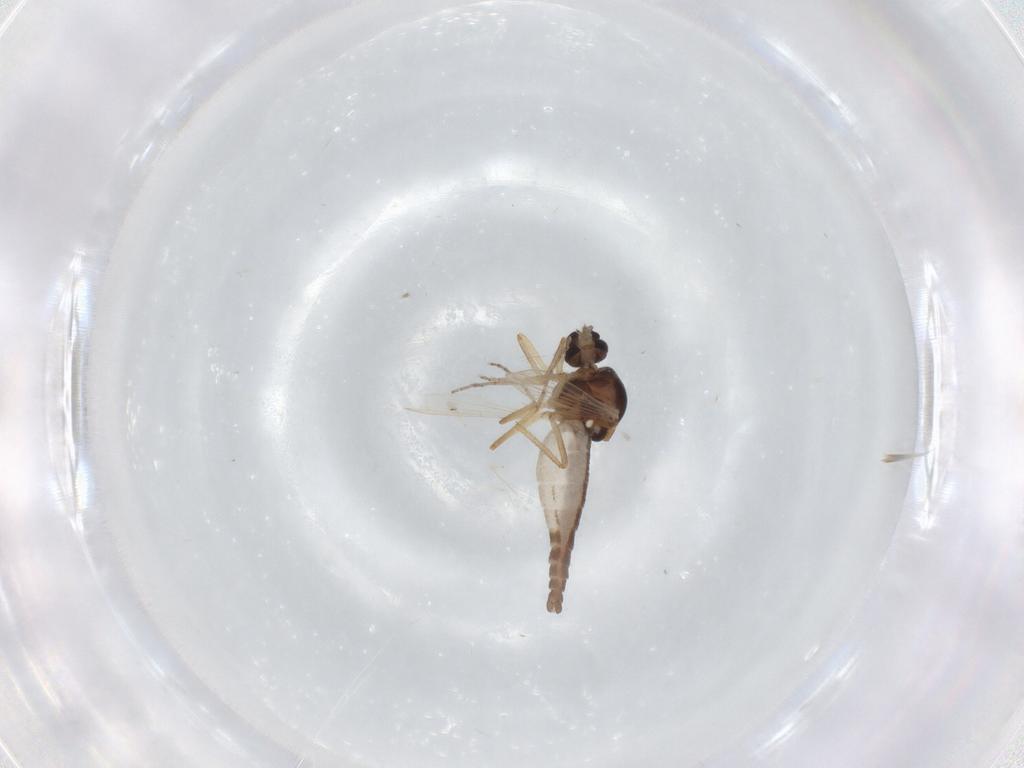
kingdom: Animalia
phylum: Arthropoda
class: Insecta
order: Diptera
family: Ceratopogonidae
